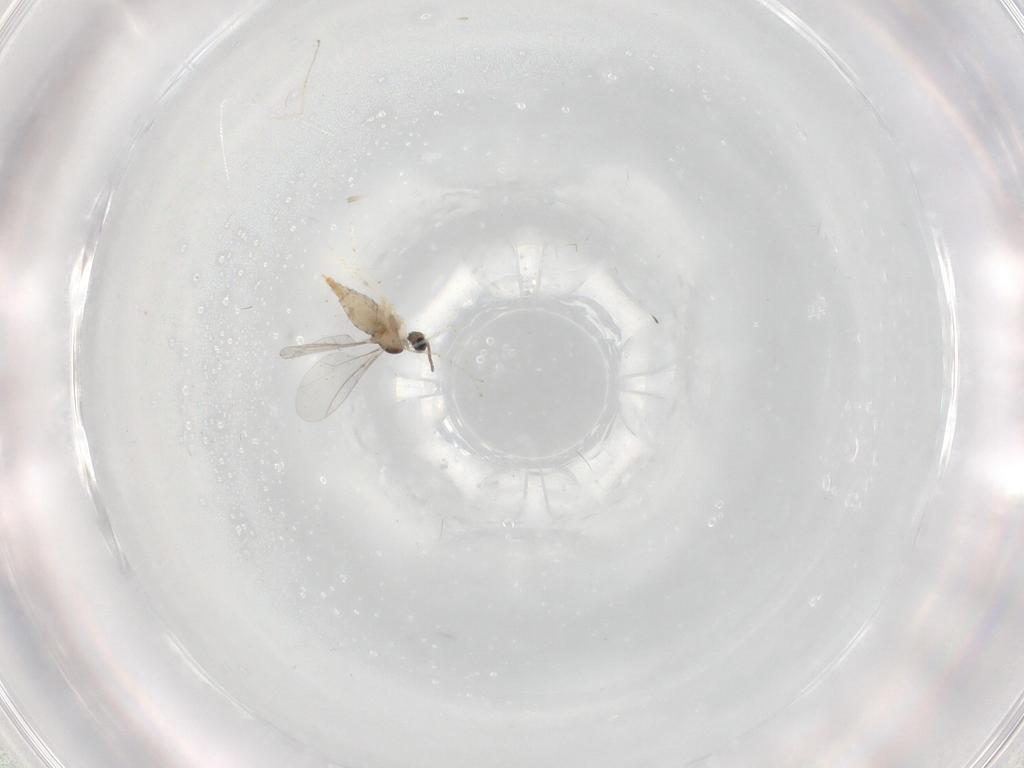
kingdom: Animalia
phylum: Arthropoda
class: Insecta
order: Diptera
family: Cecidomyiidae
